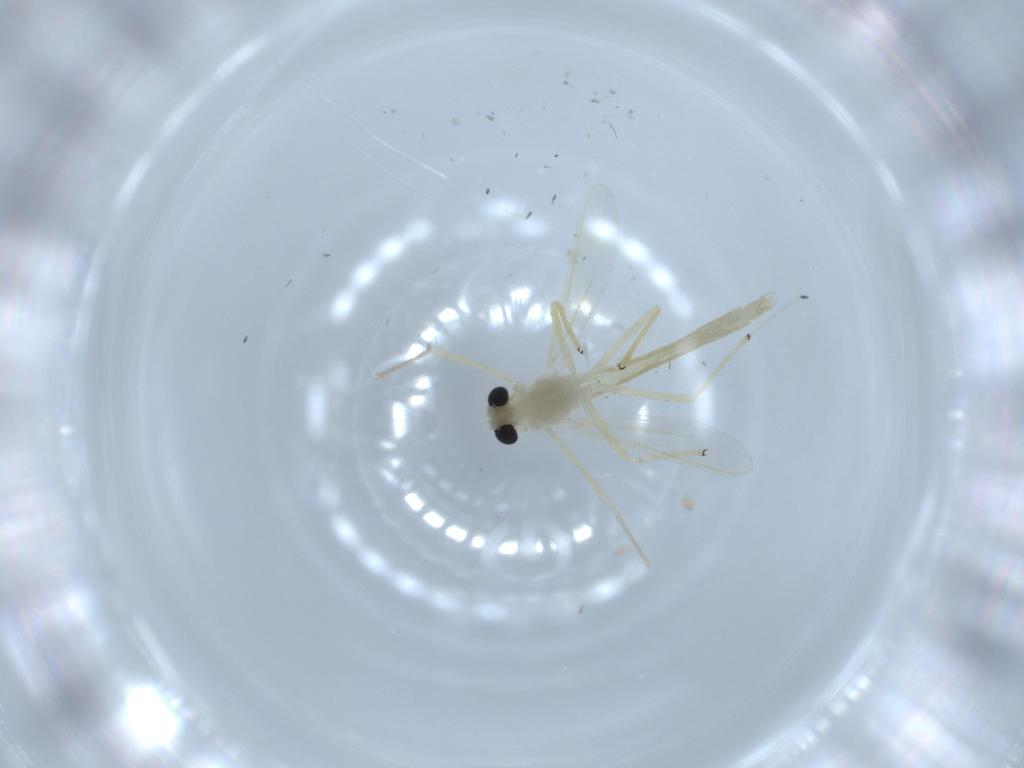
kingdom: Animalia
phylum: Arthropoda
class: Insecta
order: Diptera
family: Chironomidae
